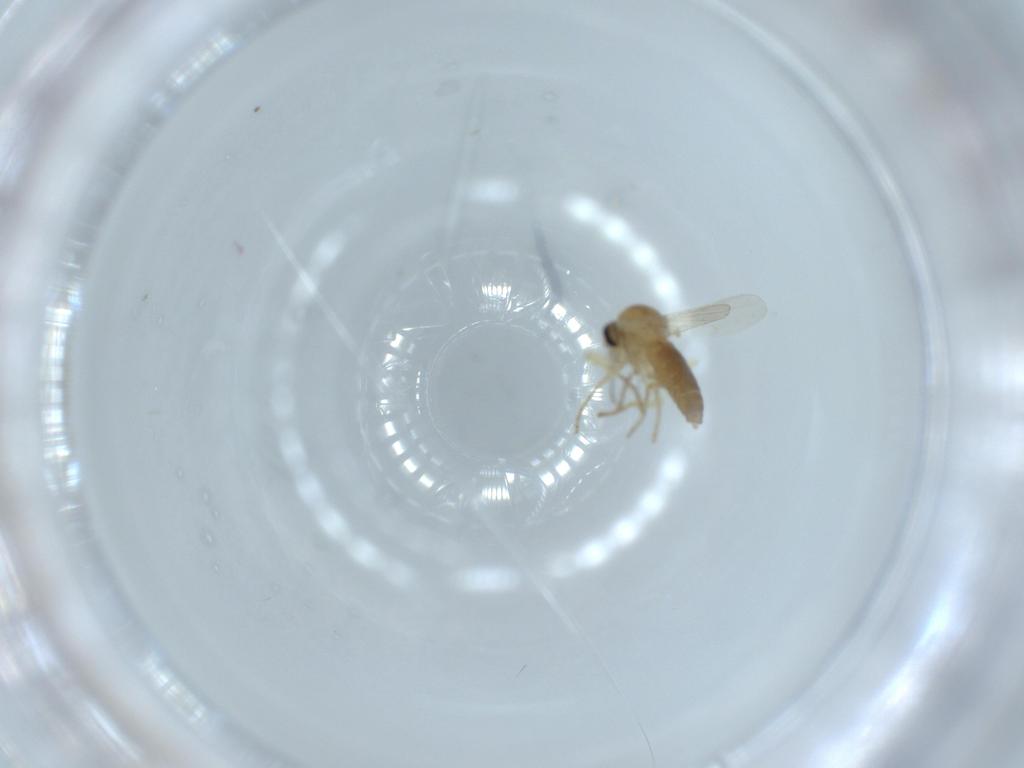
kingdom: Animalia
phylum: Arthropoda
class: Insecta
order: Diptera
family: Ceratopogonidae
